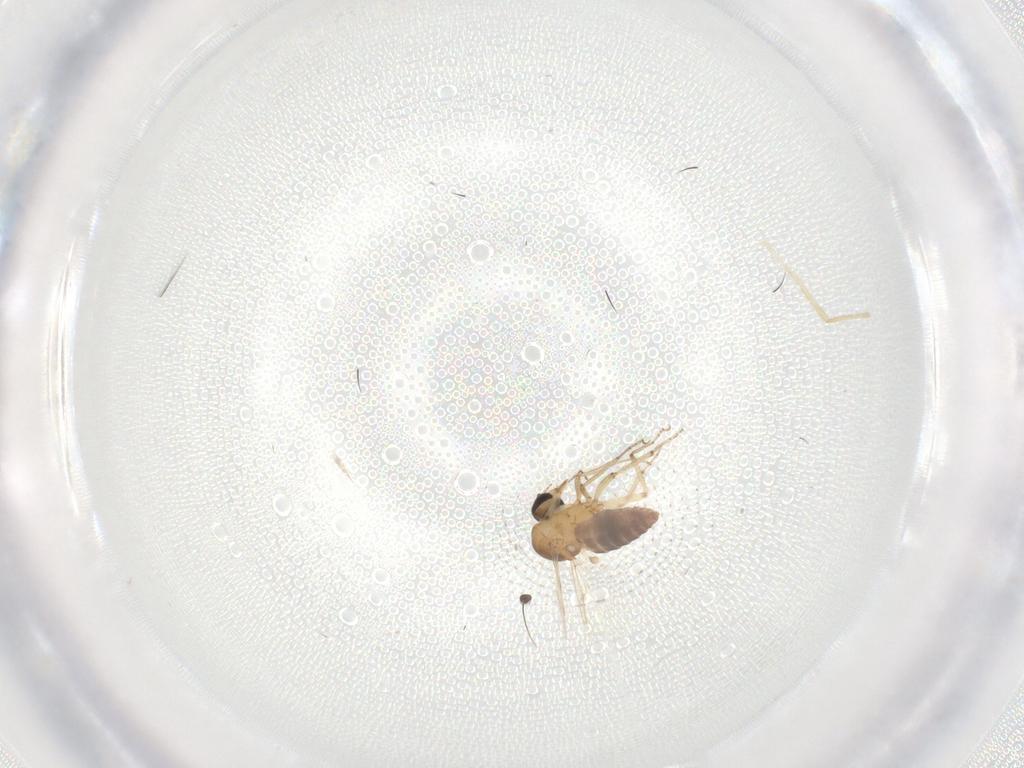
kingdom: Animalia
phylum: Arthropoda
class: Insecta
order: Diptera
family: Ceratopogonidae
